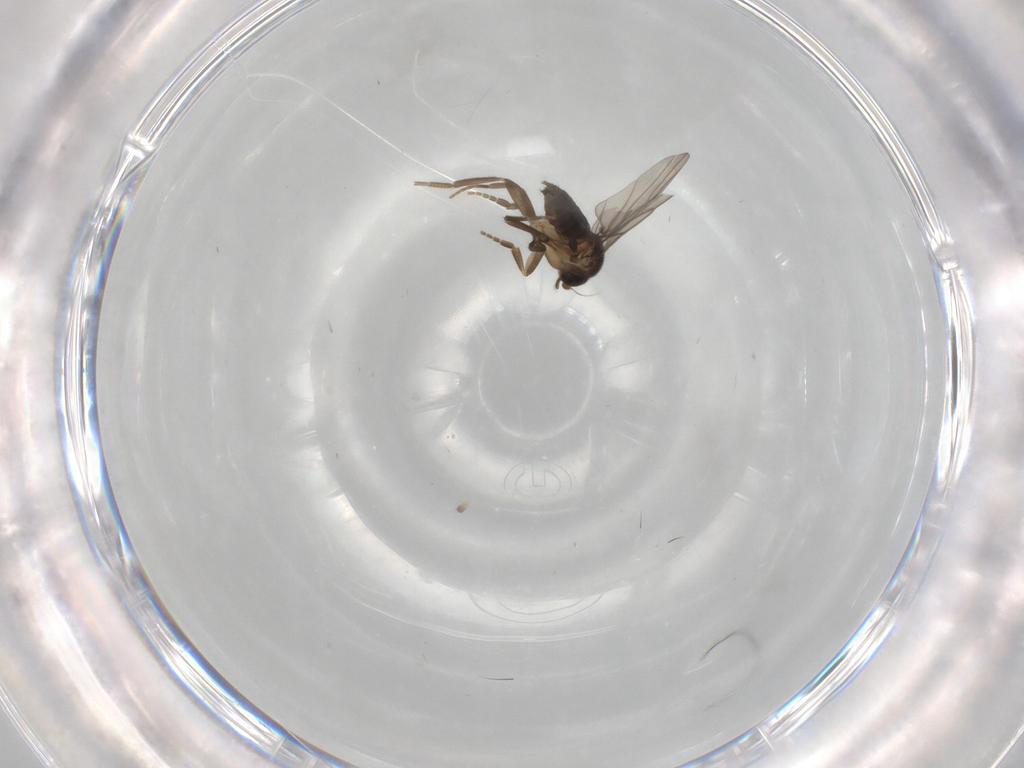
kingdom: Animalia
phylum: Arthropoda
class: Insecta
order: Diptera
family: Phoridae
